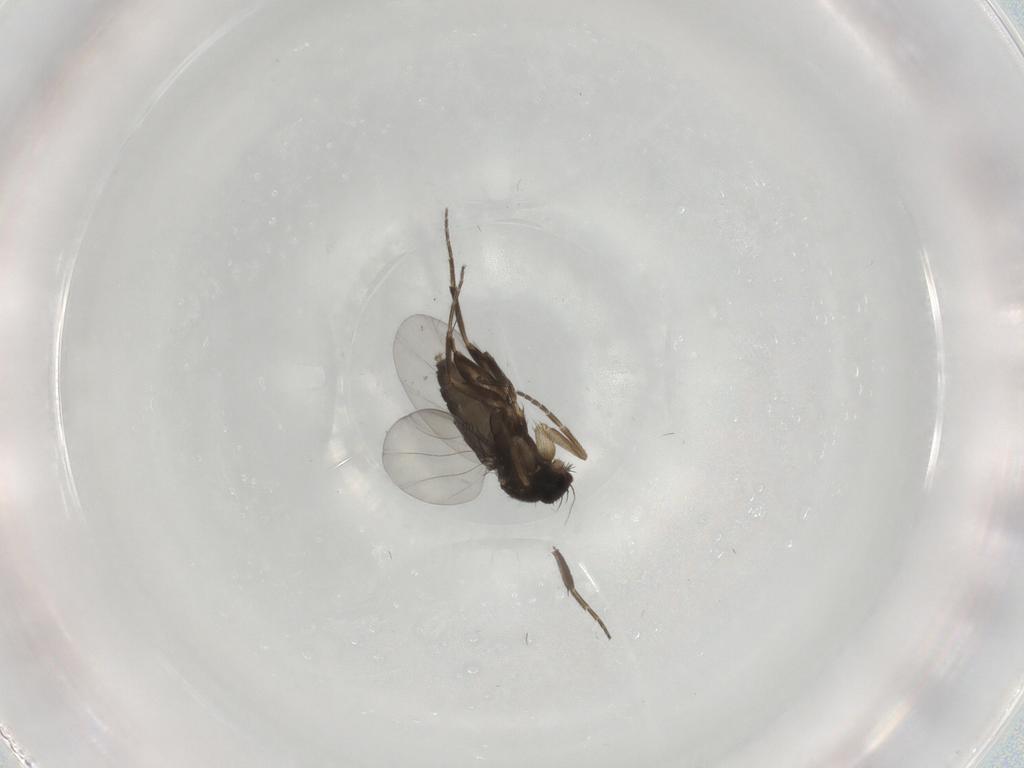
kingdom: Animalia
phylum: Arthropoda
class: Insecta
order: Diptera
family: Phoridae
